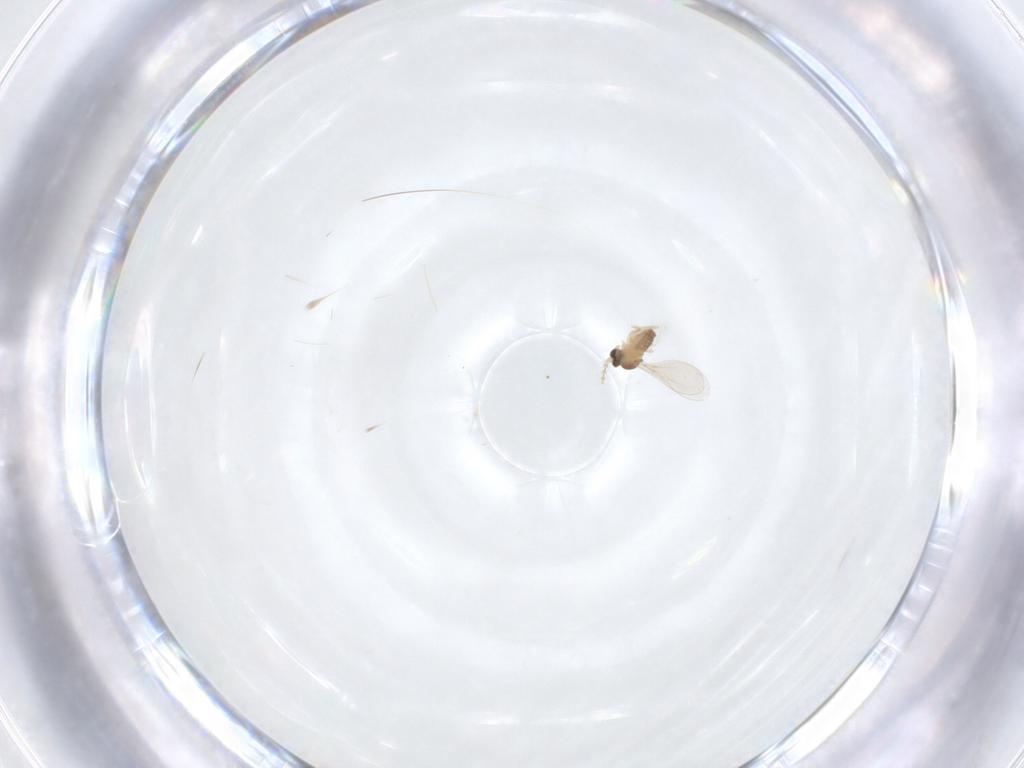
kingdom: Animalia
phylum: Arthropoda
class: Insecta
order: Diptera
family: Cecidomyiidae
